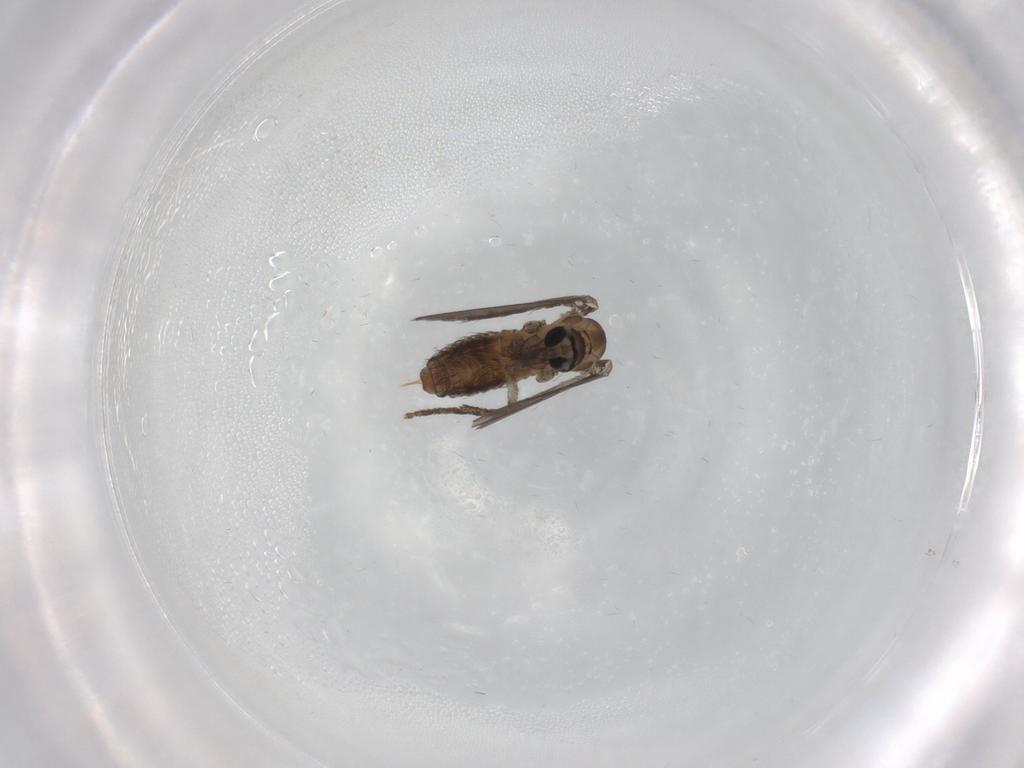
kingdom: Animalia
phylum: Arthropoda
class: Insecta
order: Diptera
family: Psychodidae
